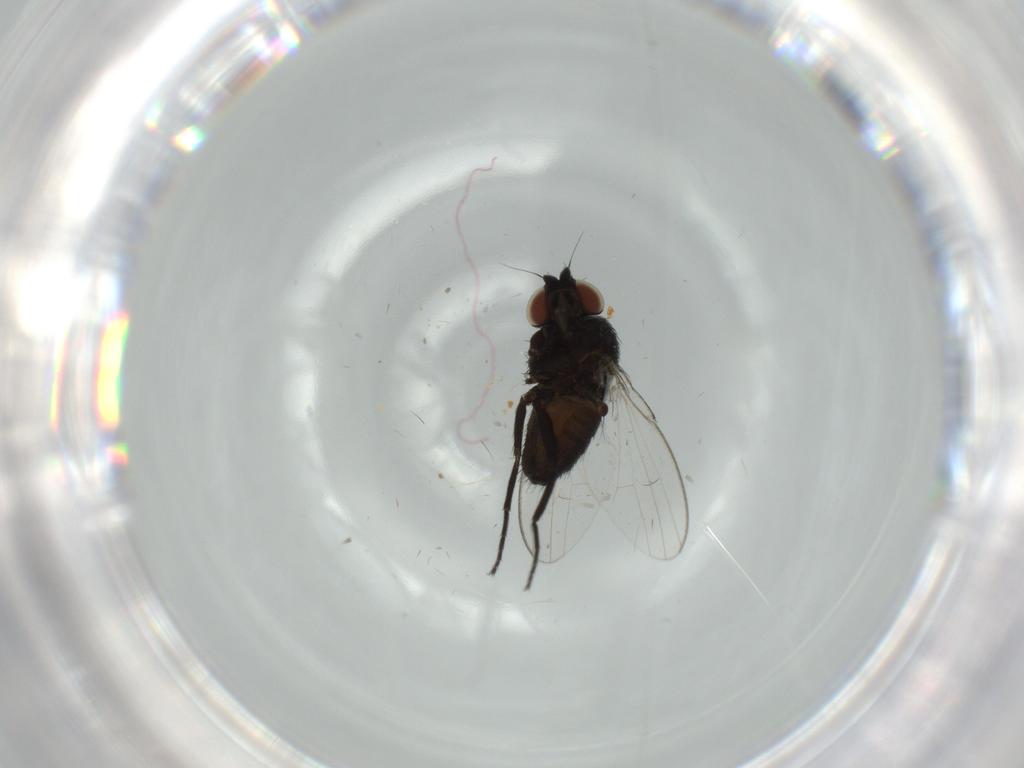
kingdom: Animalia
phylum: Arthropoda
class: Insecta
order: Diptera
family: Milichiidae
